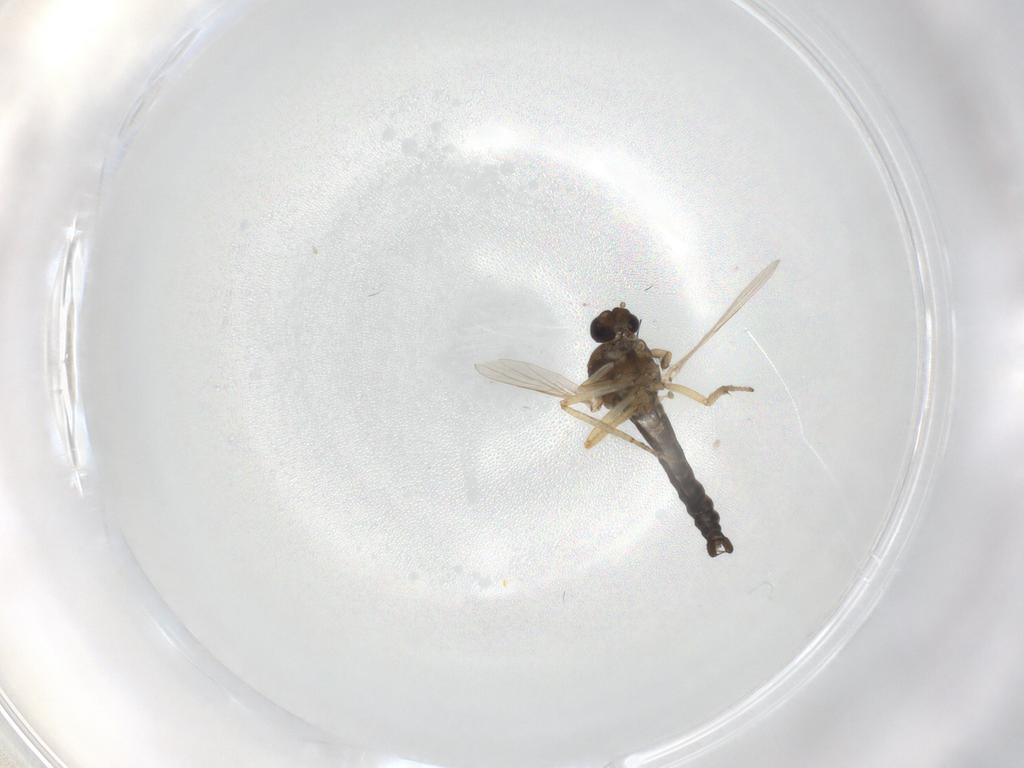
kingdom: Animalia
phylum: Arthropoda
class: Insecta
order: Diptera
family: Ceratopogonidae
